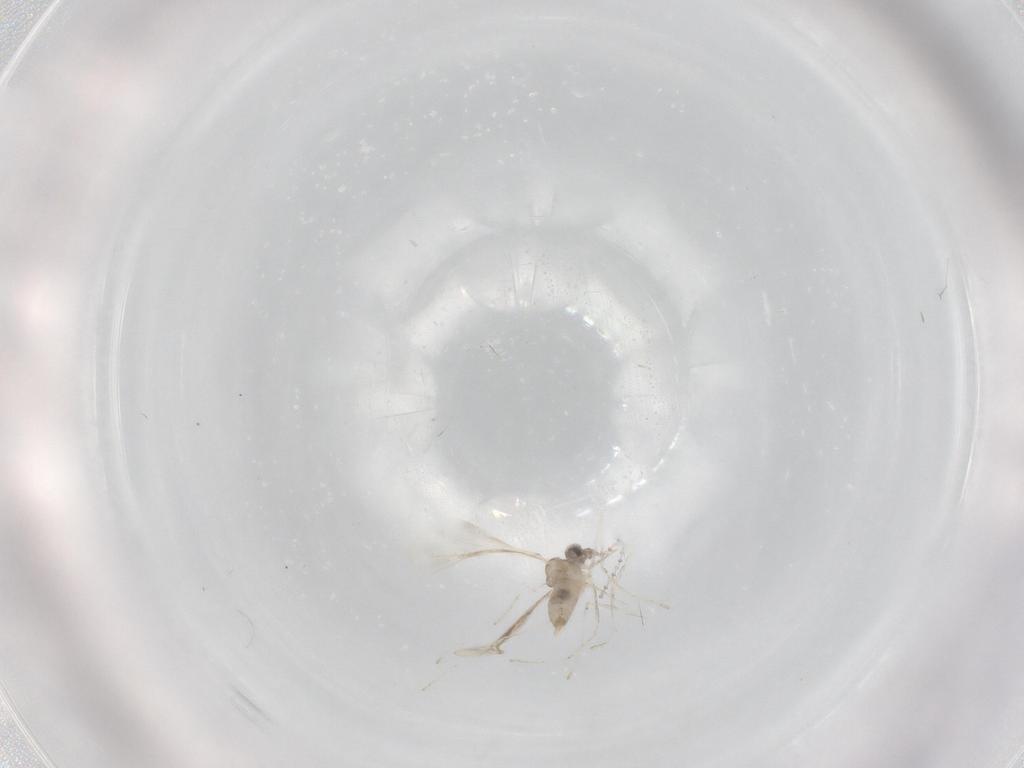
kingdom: Animalia
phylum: Arthropoda
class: Insecta
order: Diptera
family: Cecidomyiidae
